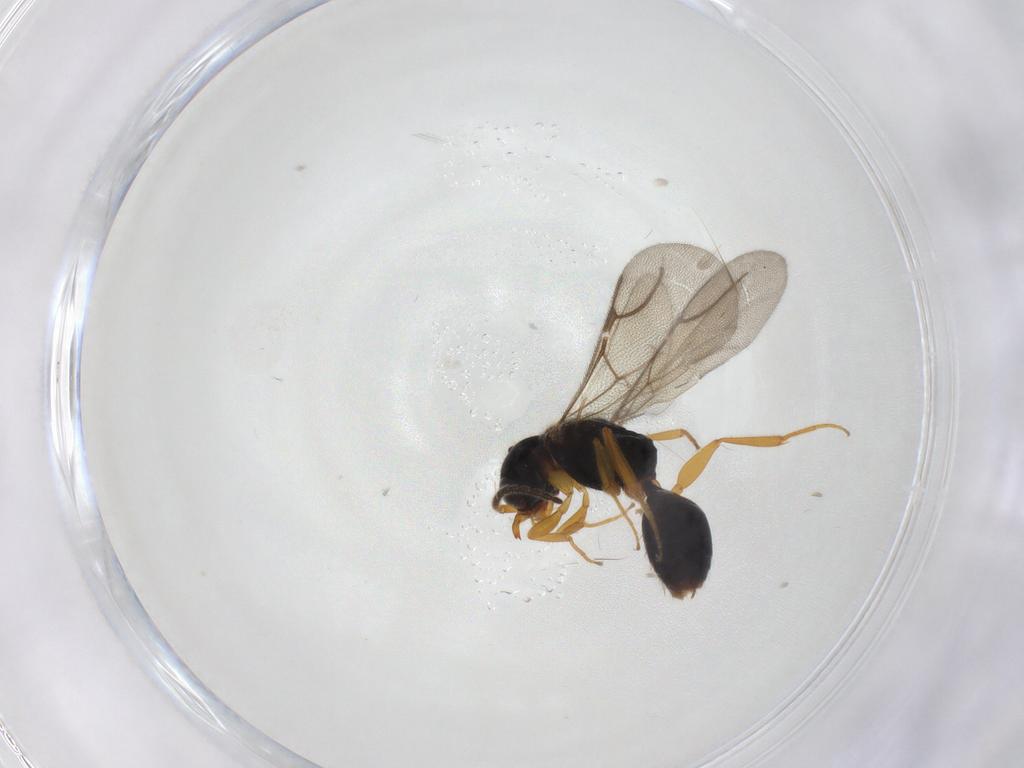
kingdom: Animalia
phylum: Arthropoda
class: Insecta
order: Hymenoptera
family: Bethylidae
